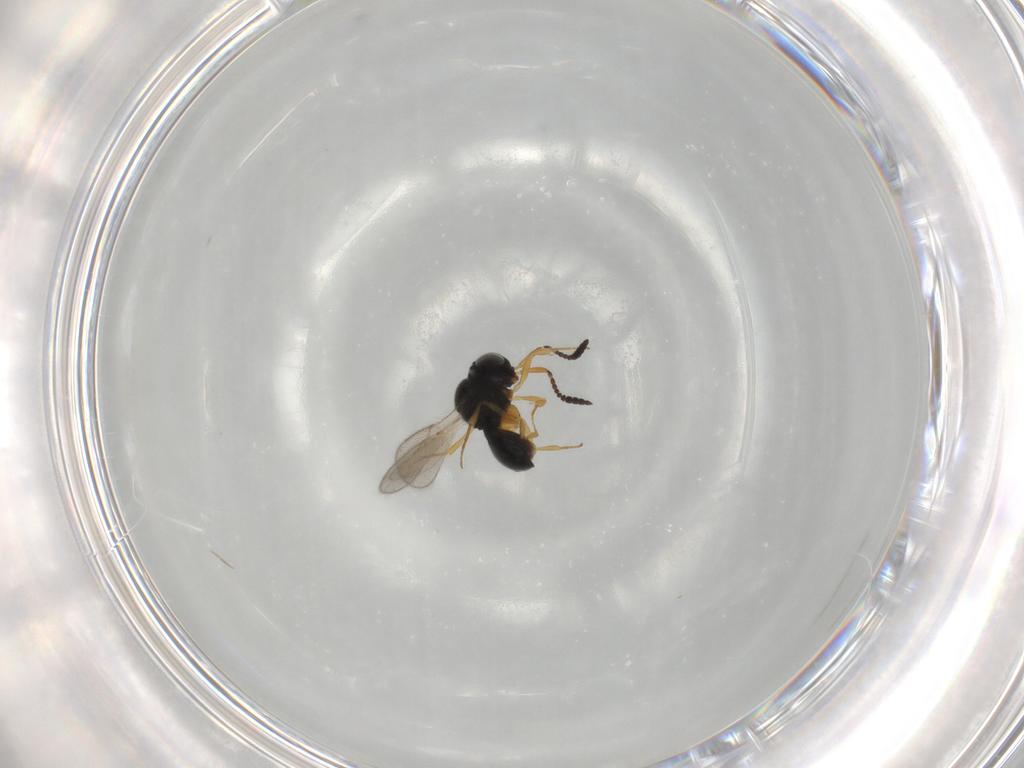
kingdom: Animalia
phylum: Arthropoda
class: Insecta
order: Hymenoptera
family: Scelionidae
